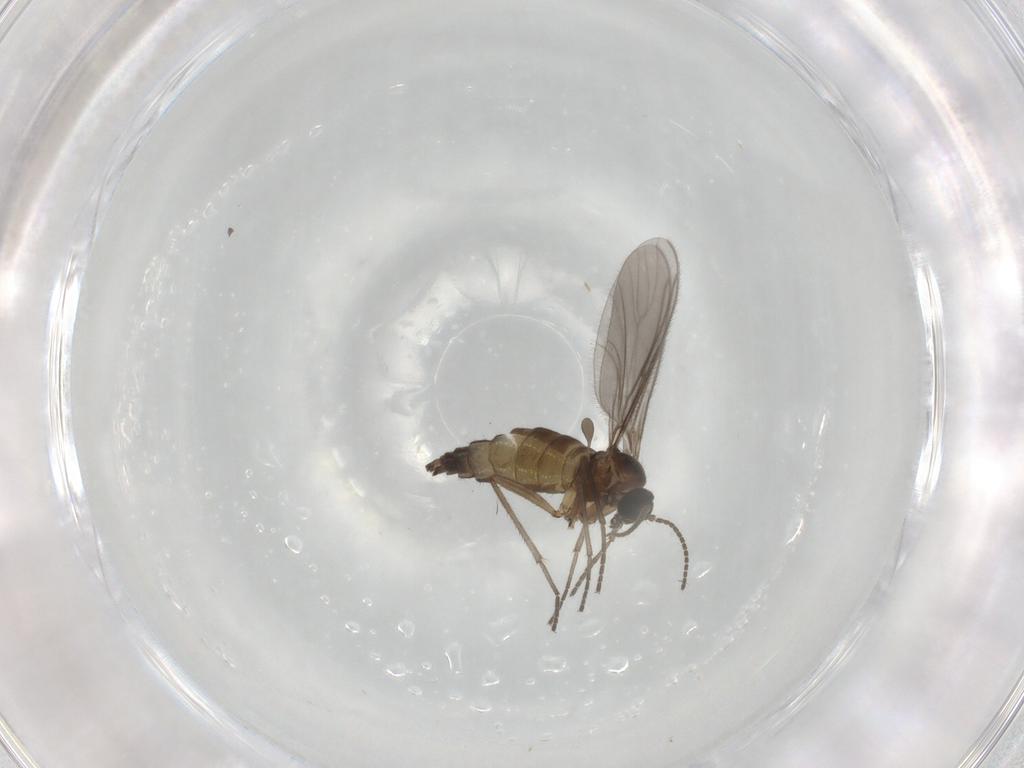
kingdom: Animalia
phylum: Arthropoda
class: Insecta
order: Diptera
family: Sciaridae
